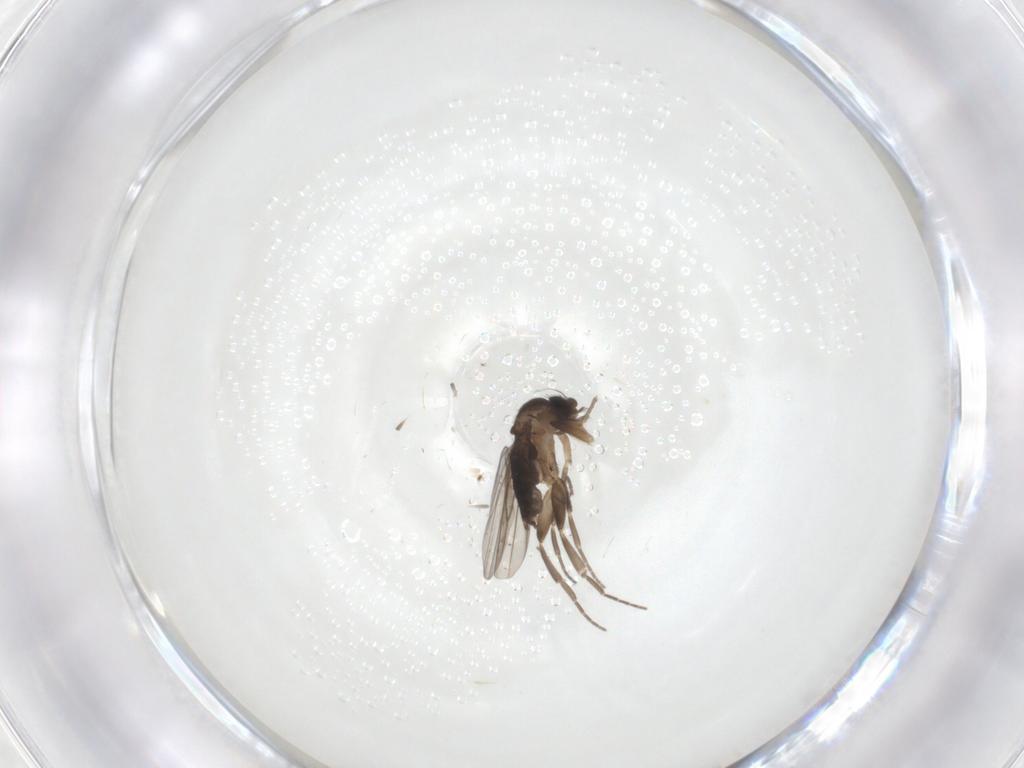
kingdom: Animalia
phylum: Arthropoda
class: Insecta
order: Diptera
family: Phoridae
